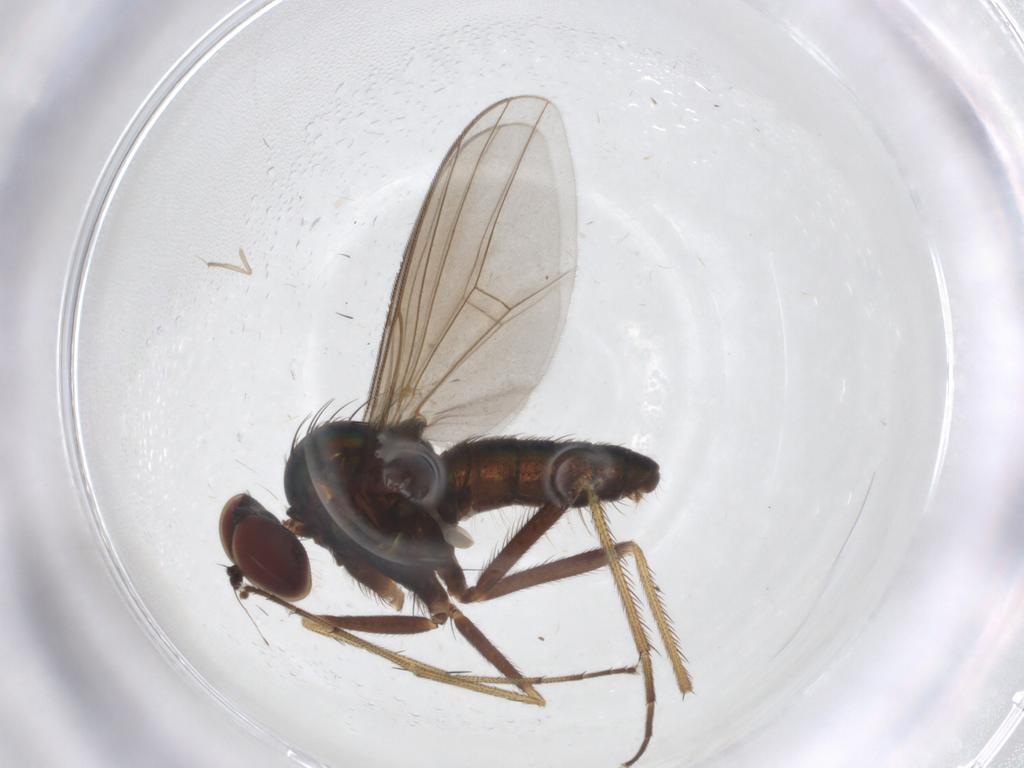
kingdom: Animalia
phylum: Arthropoda
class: Insecta
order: Diptera
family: Dolichopodidae
